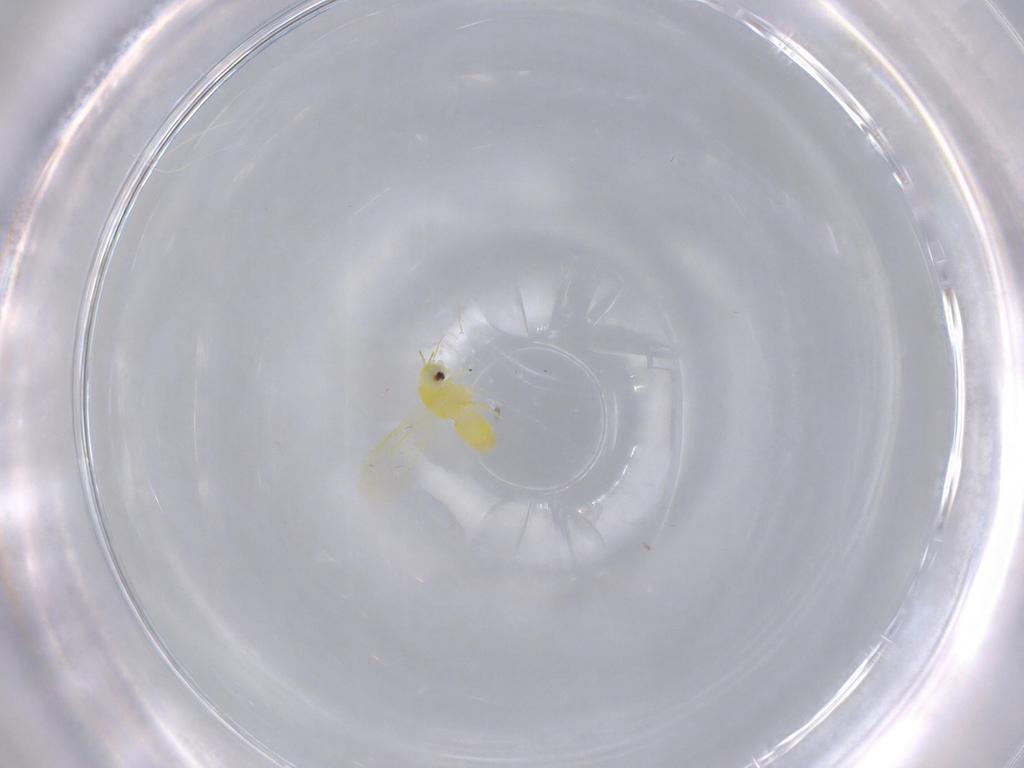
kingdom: Animalia
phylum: Arthropoda
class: Insecta
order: Hemiptera
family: Aleyrodidae
